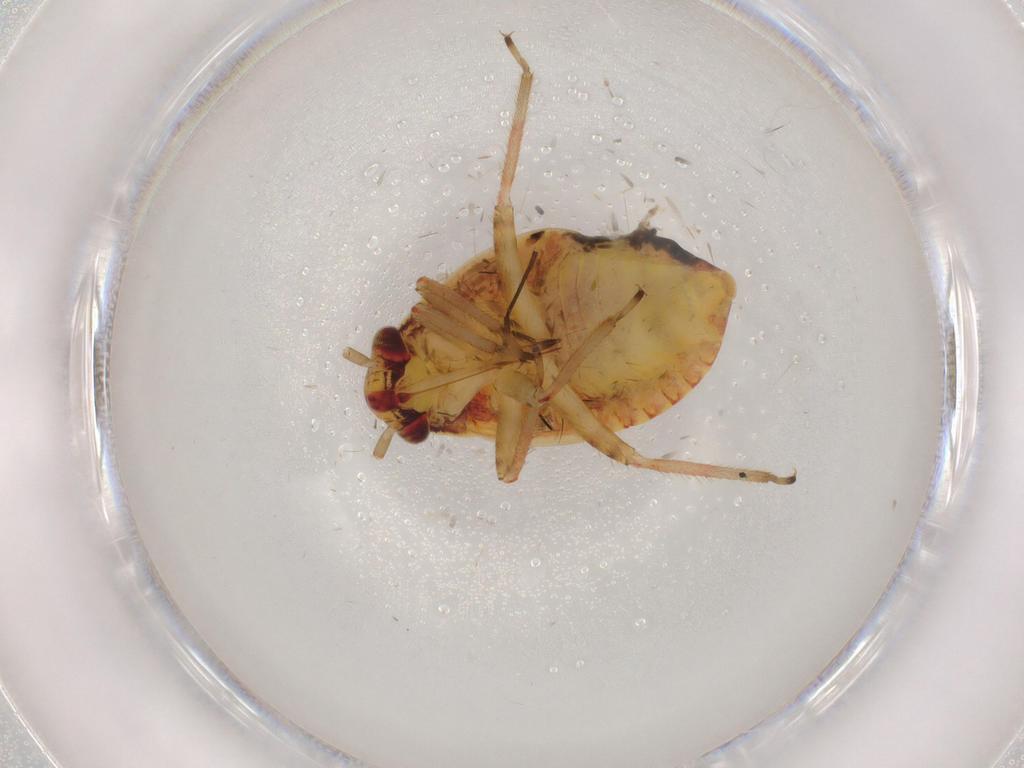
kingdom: Animalia
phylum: Arthropoda
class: Insecta
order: Hemiptera
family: Miridae
